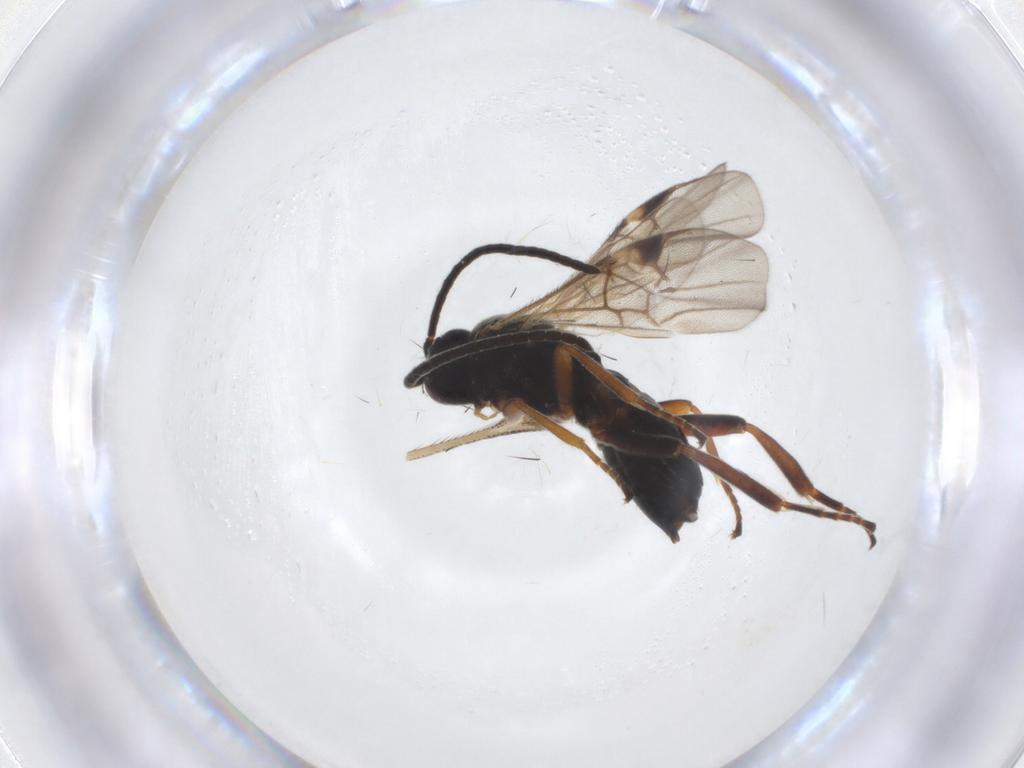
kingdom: Animalia
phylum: Arthropoda
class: Insecta
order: Hymenoptera
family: Braconidae
